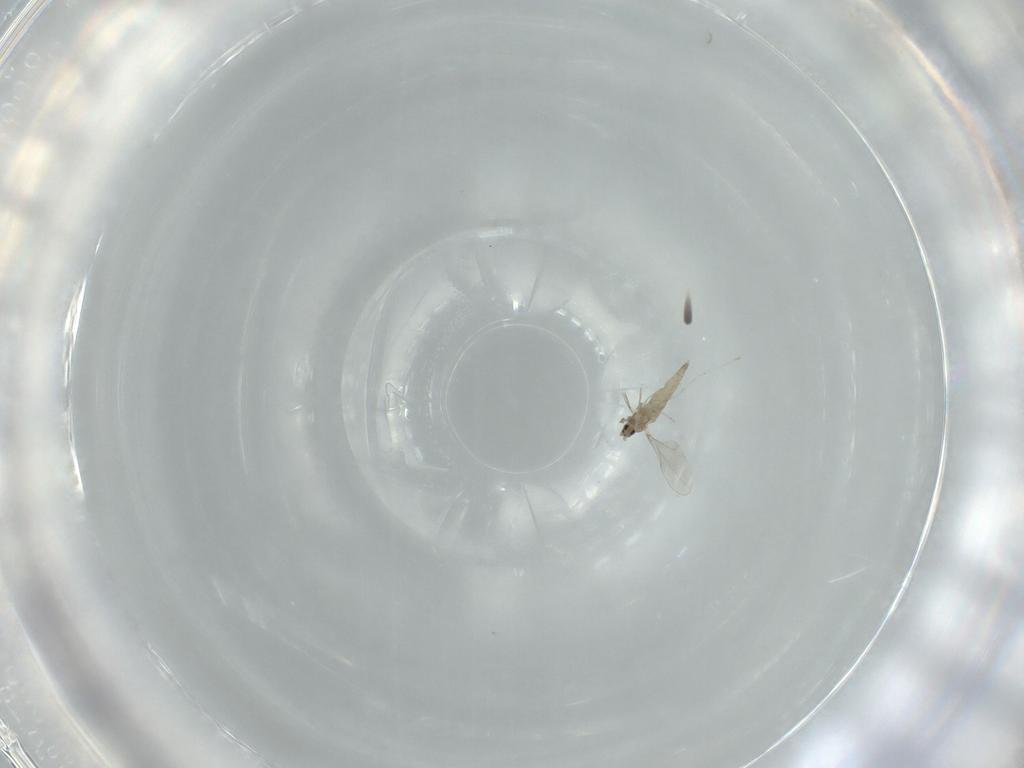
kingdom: Animalia
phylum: Arthropoda
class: Insecta
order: Diptera
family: Cecidomyiidae
